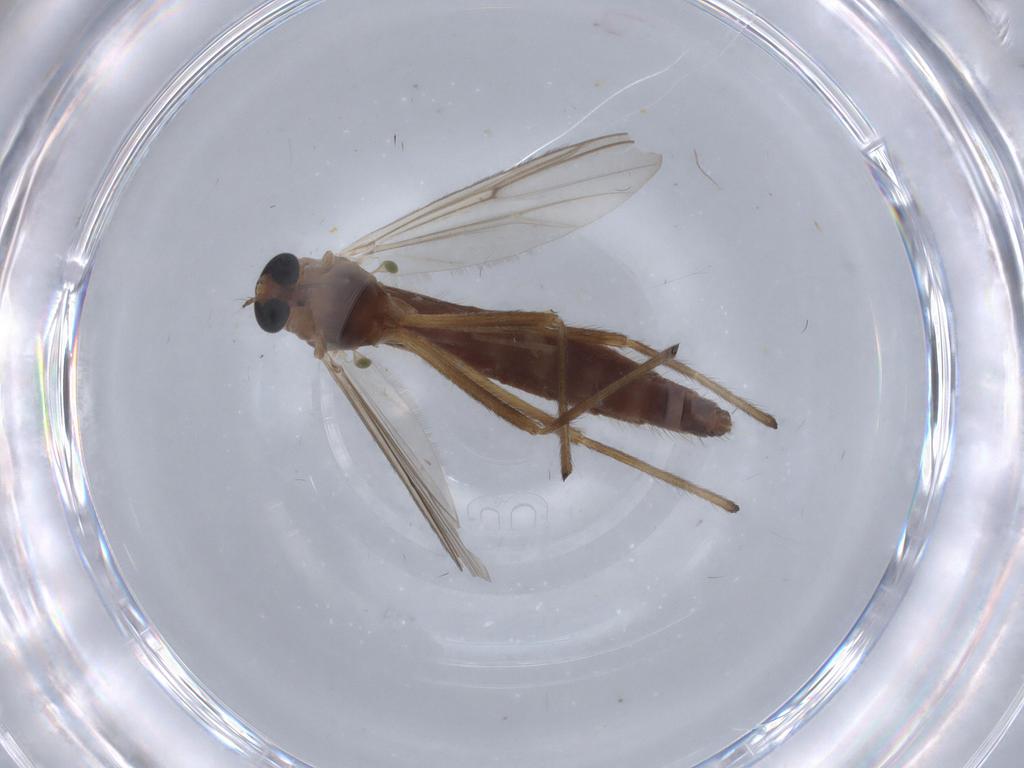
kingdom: Animalia
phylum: Arthropoda
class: Insecta
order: Diptera
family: Chironomidae
